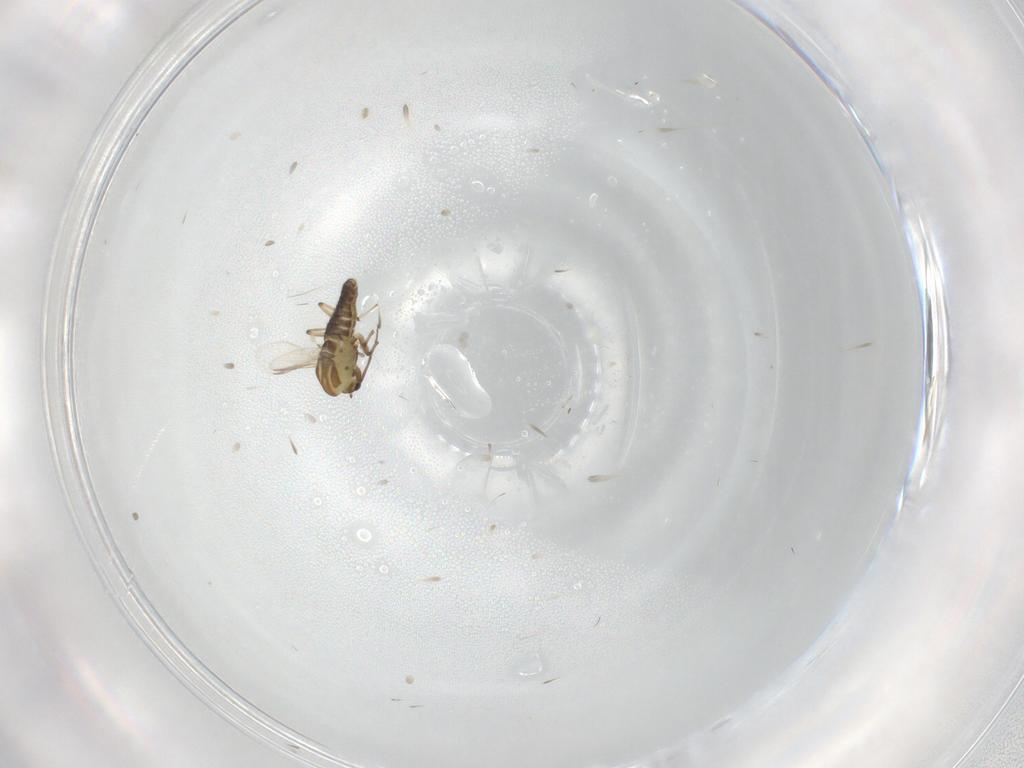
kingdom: Animalia
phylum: Arthropoda
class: Insecta
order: Diptera
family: Chironomidae
